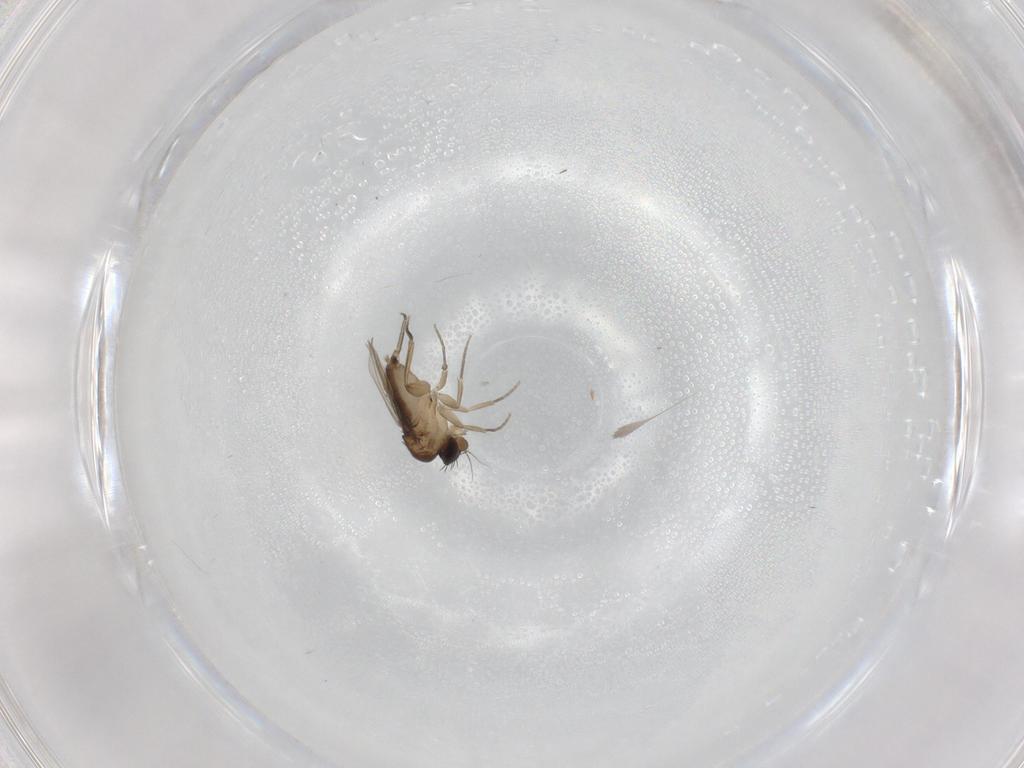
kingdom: Animalia
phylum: Arthropoda
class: Insecta
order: Diptera
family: Phoridae
